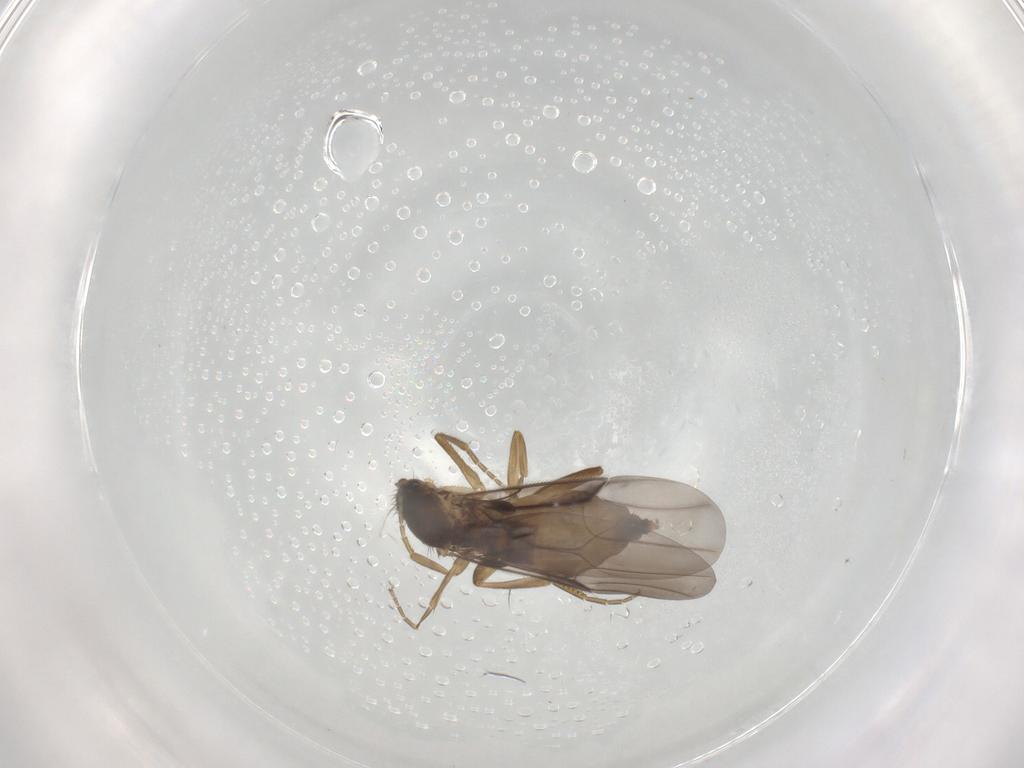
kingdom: Animalia
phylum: Arthropoda
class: Insecta
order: Diptera
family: Phoridae
